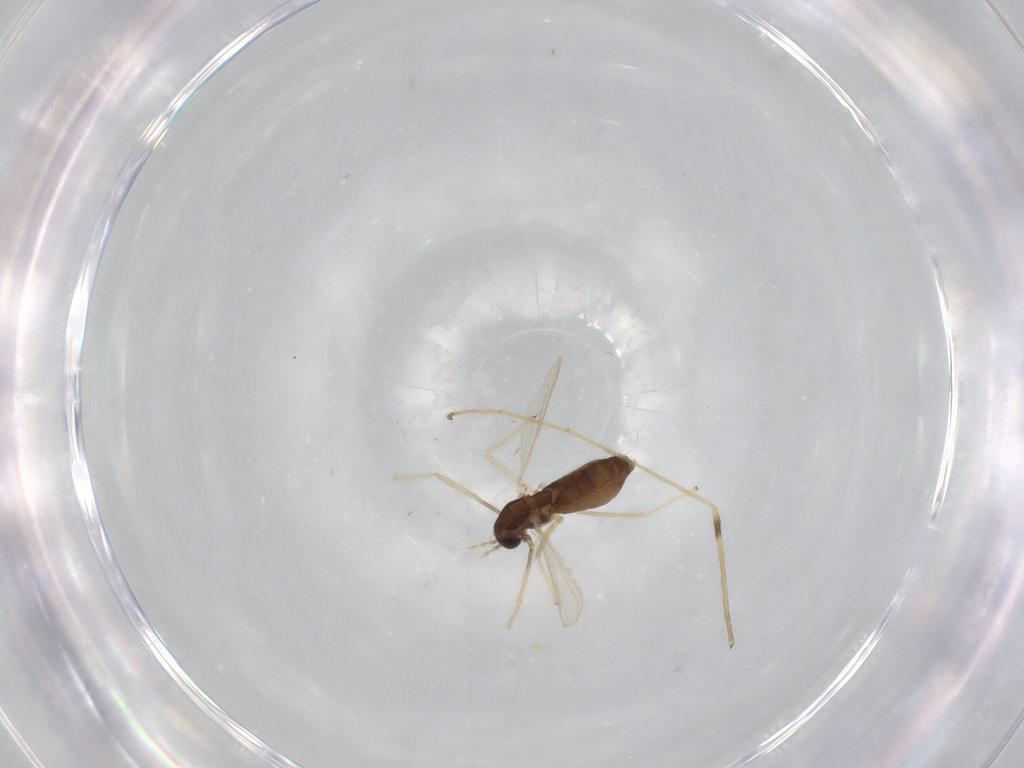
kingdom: Animalia
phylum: Arthropoda
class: Insecta
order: Diptera
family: Chironomidae
